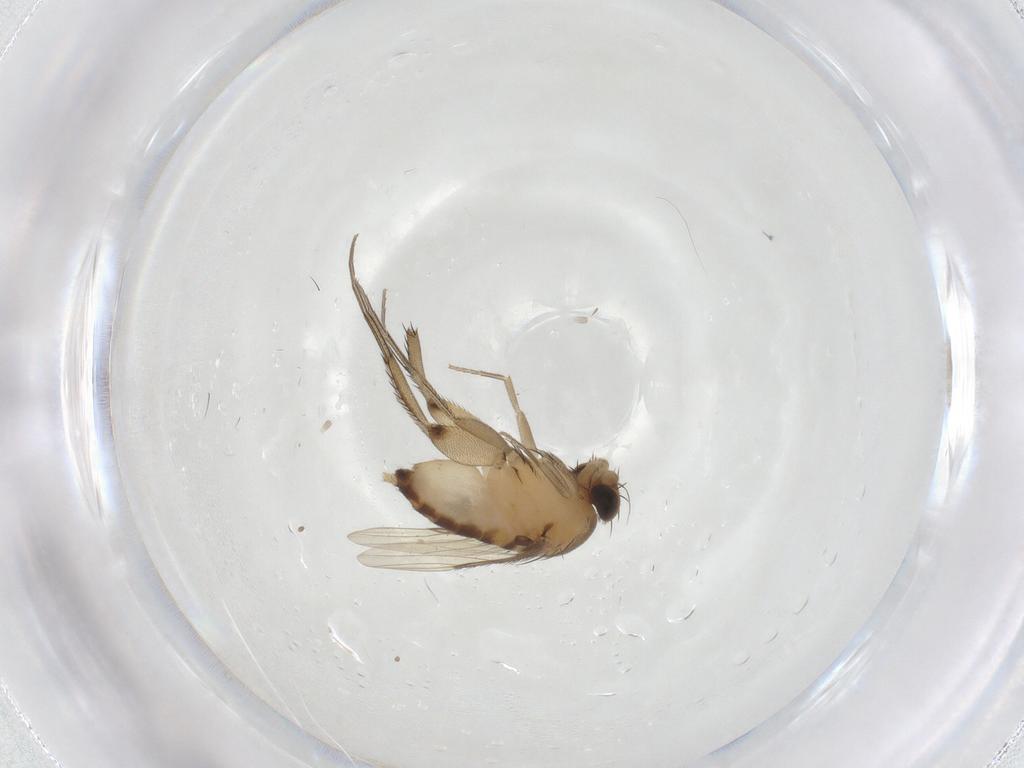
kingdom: Animalia
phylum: Arthropoda
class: Insecta
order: Diptera
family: Phoridae
